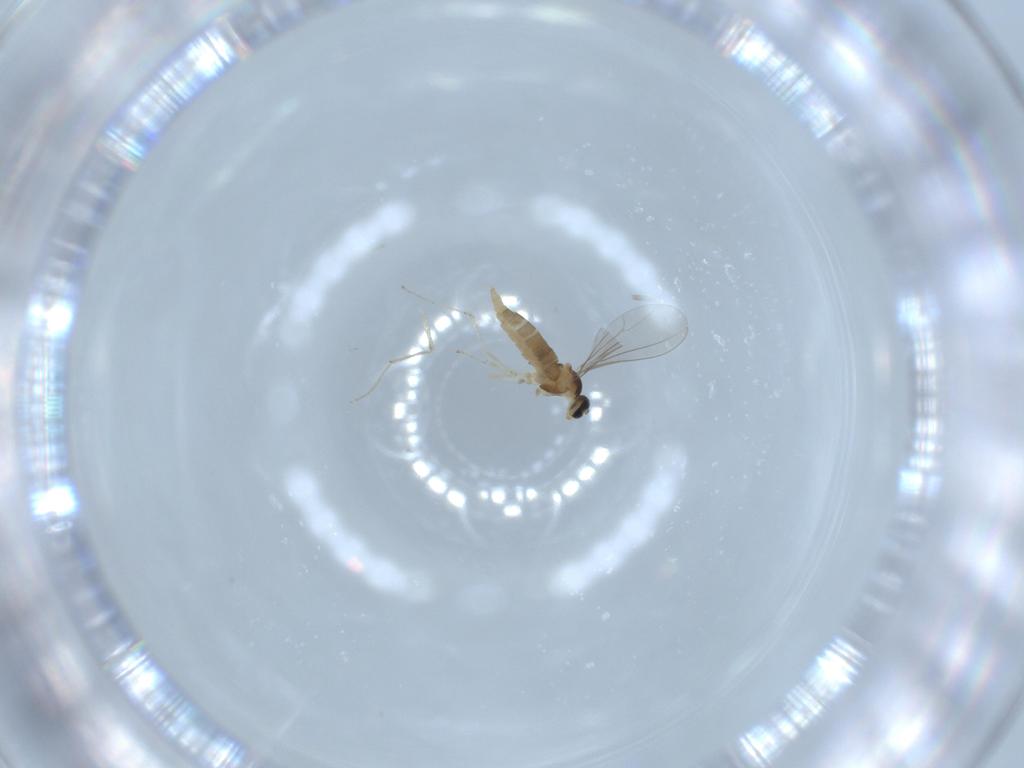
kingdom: Animalia
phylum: Arthropoda
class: Insecta
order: Diptera
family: Cecidomyiidae
